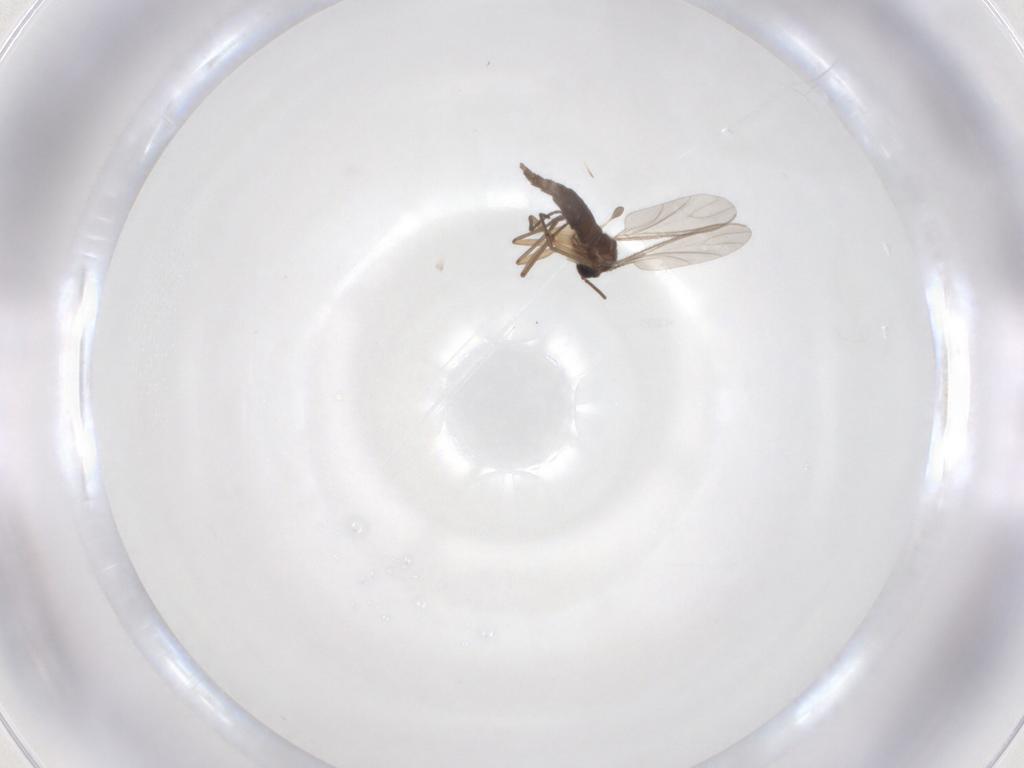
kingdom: Animalia
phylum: Arthropoda
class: Insecta
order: Diptera
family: Sciaridae
